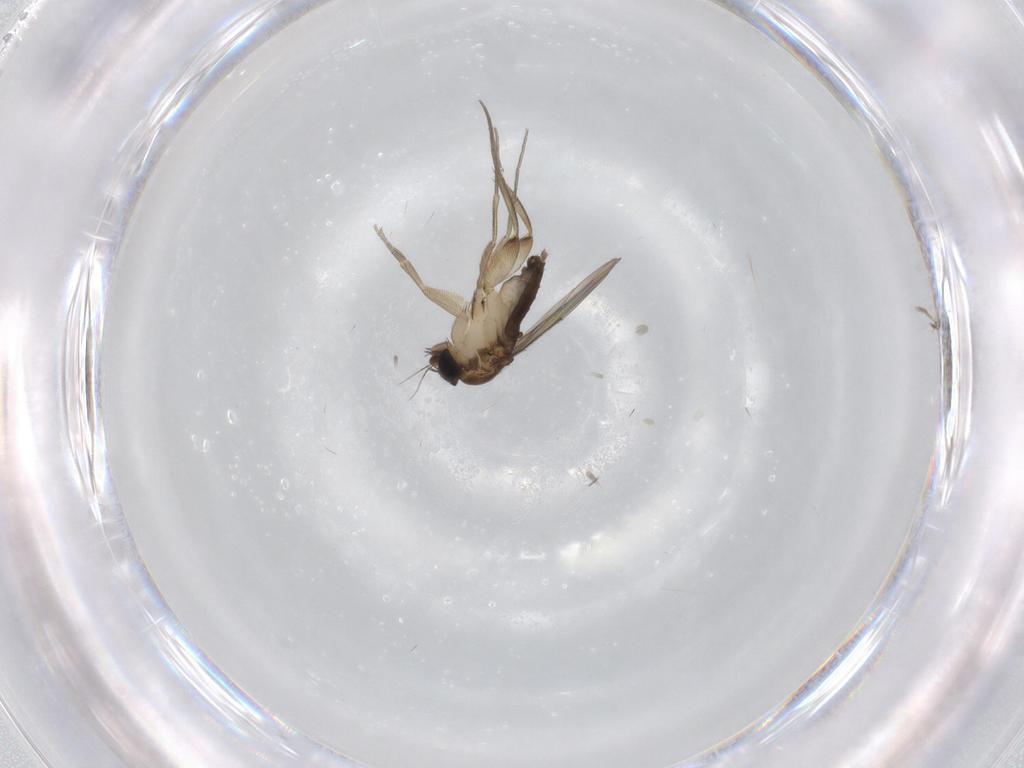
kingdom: Animalia
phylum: Arthropoda
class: Insecta
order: Diptera
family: Phoridae
